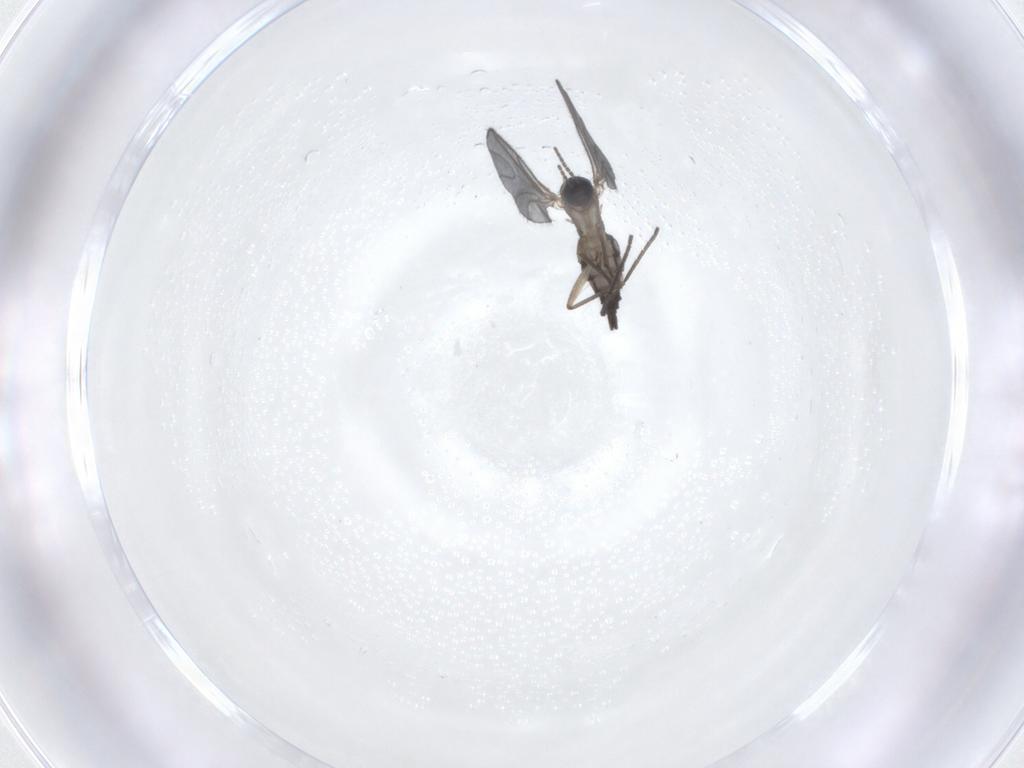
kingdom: Animalia
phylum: Arthropoda
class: Insecta
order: Diptera
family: Sciaridae
